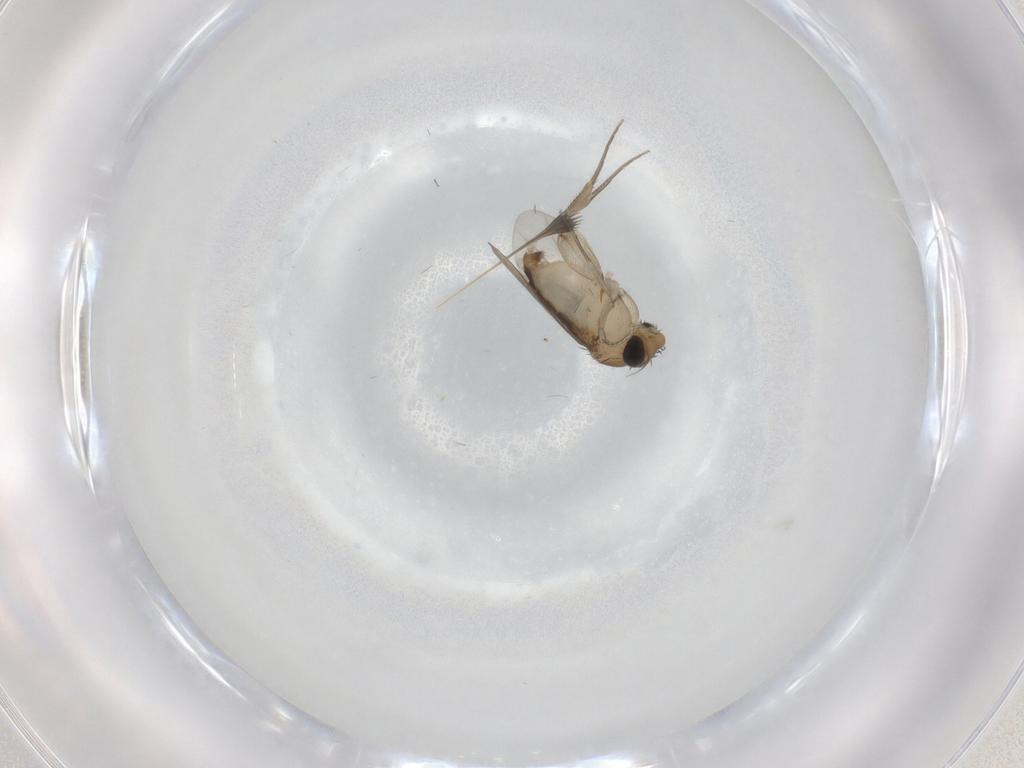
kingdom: Animalia
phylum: Arthropoda
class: Insecta
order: Diptera
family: Phoridae
